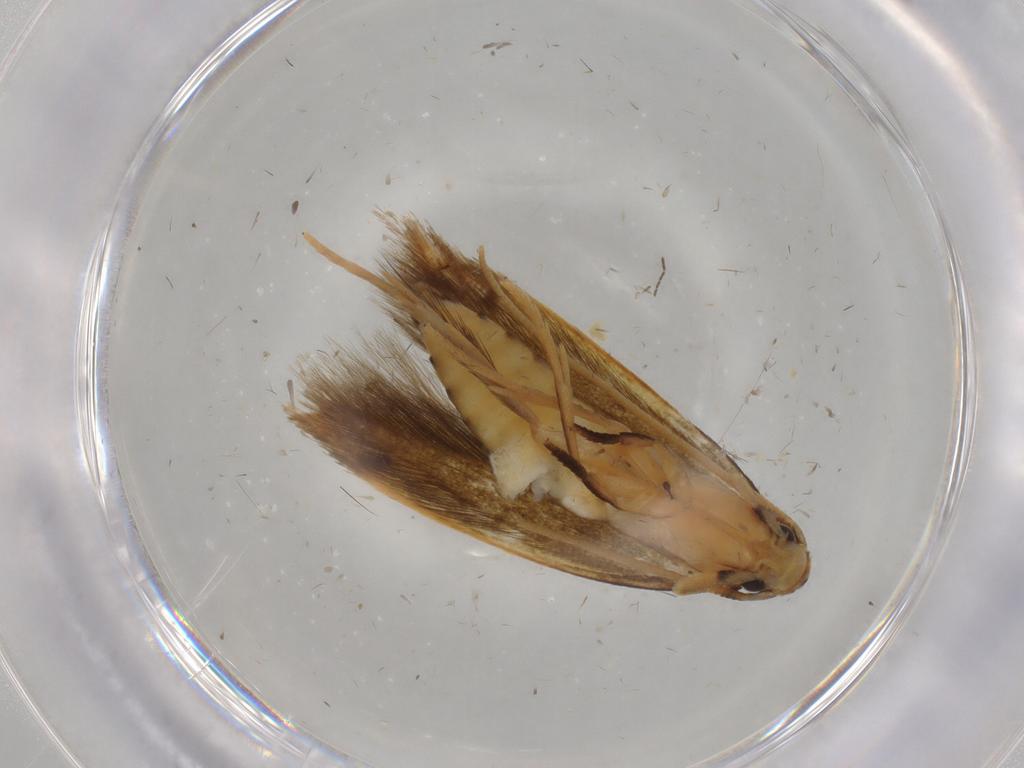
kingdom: Animalia
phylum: Arthropoda
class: Insecta
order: Lepidoptera
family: Tineidae
